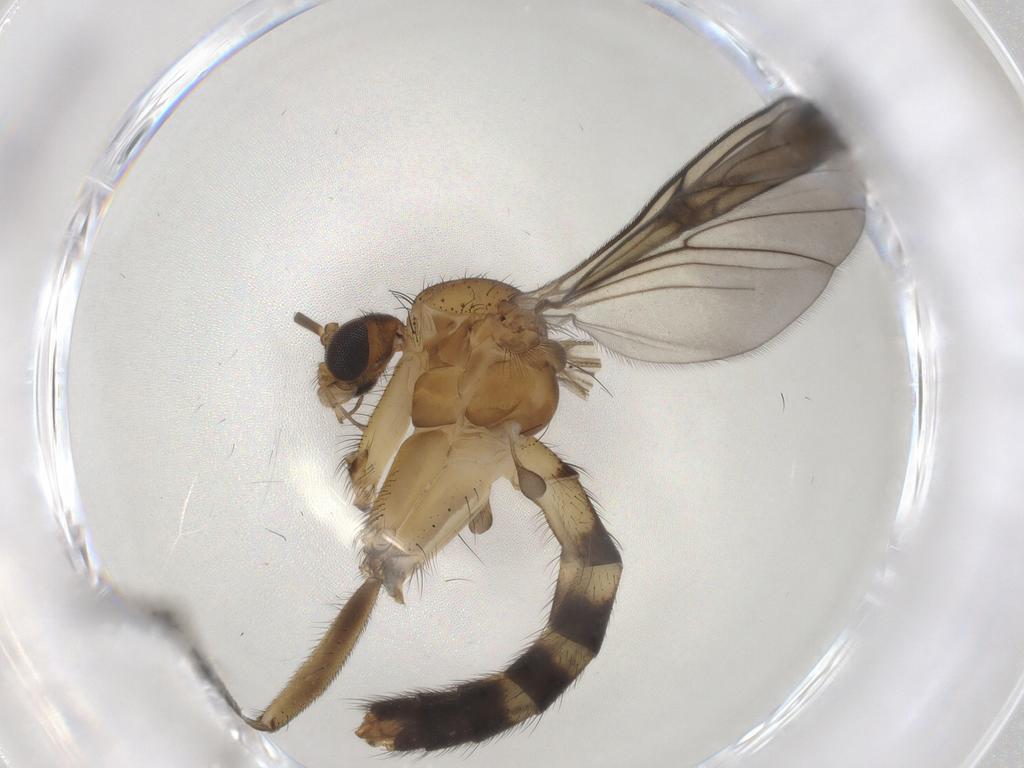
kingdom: Animalia
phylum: Arthropoda
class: Insecta
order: Diptera
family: Mycetophilidae
